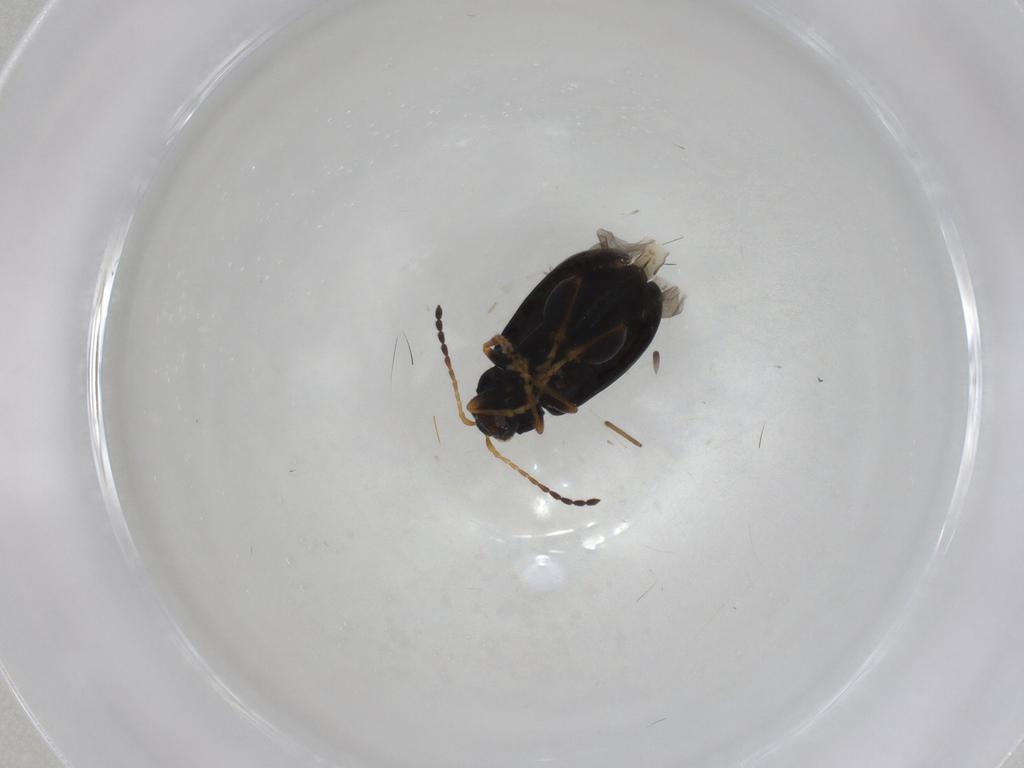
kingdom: Animalia
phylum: Arthropoda
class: Insecta
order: Coleoptera
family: Chrysomelidae
